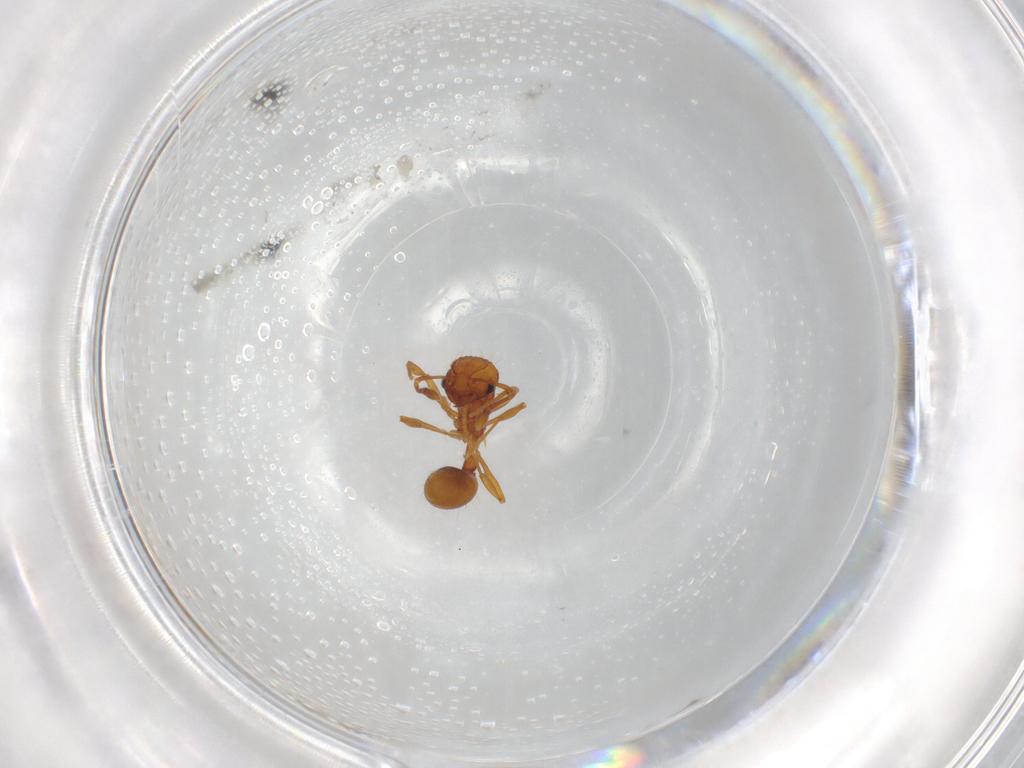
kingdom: Animalia
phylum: Arthropoda
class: Insecta
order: Hymenoptera
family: Formicidae
